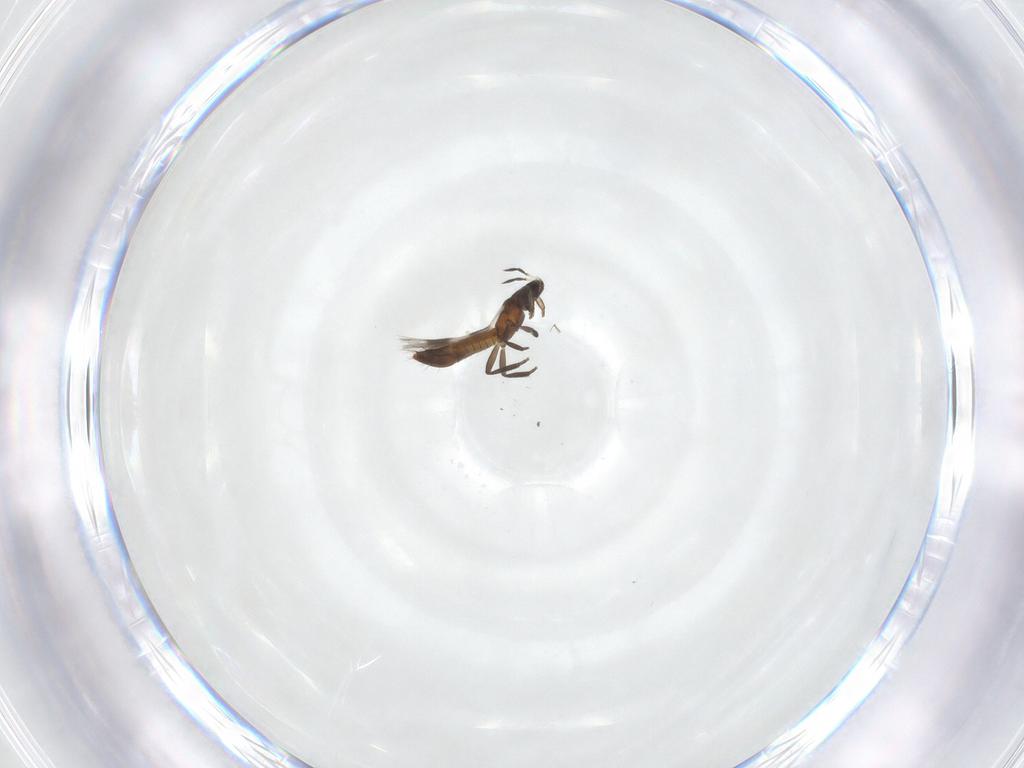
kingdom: Animalia
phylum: Arthropoda
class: Insecta
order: Thysanoptera
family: Aeolothripidae
